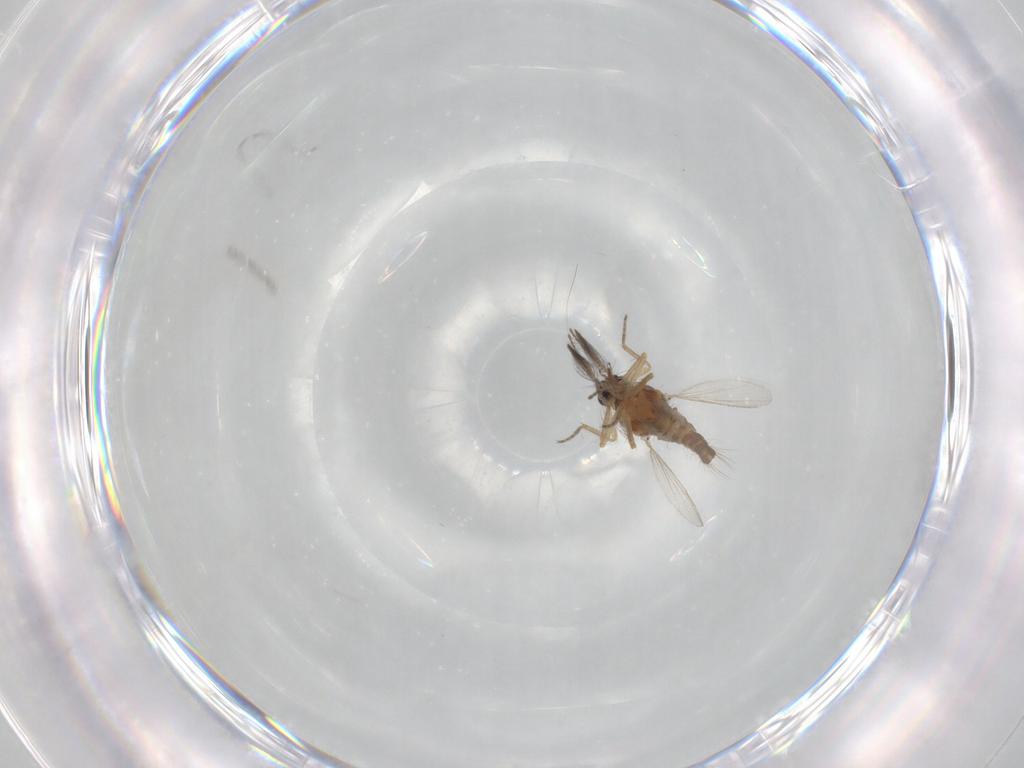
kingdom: Animalia
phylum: Arthropoda
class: Insecta
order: Diptera
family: Ceratopogonidae
